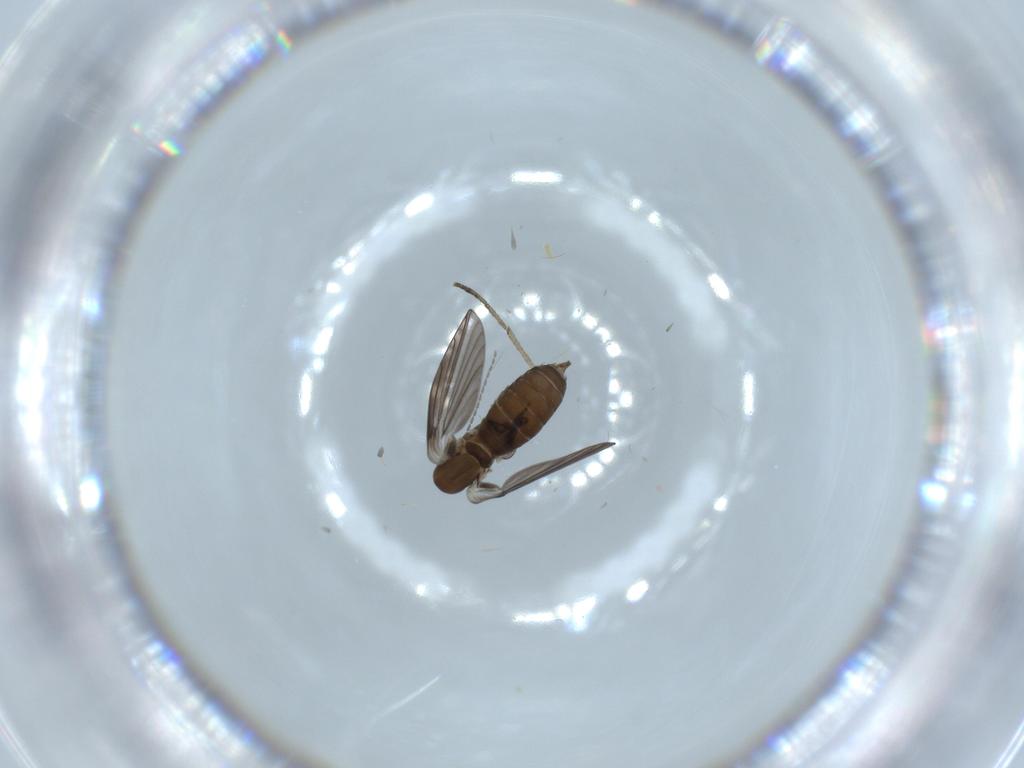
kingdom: Animalia
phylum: Arthropoda
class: Insecta
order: Diptera
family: Psychodidae
